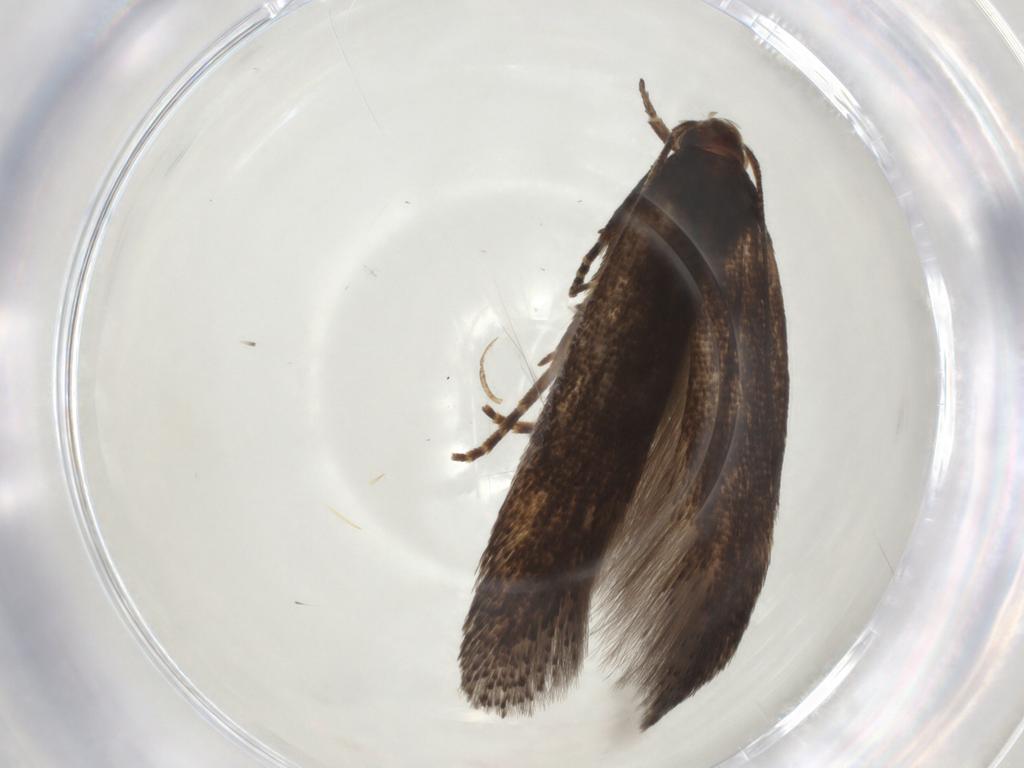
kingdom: Animalia
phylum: Arthropoda
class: Insecta
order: Lepidoptera
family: Gelechiidae
